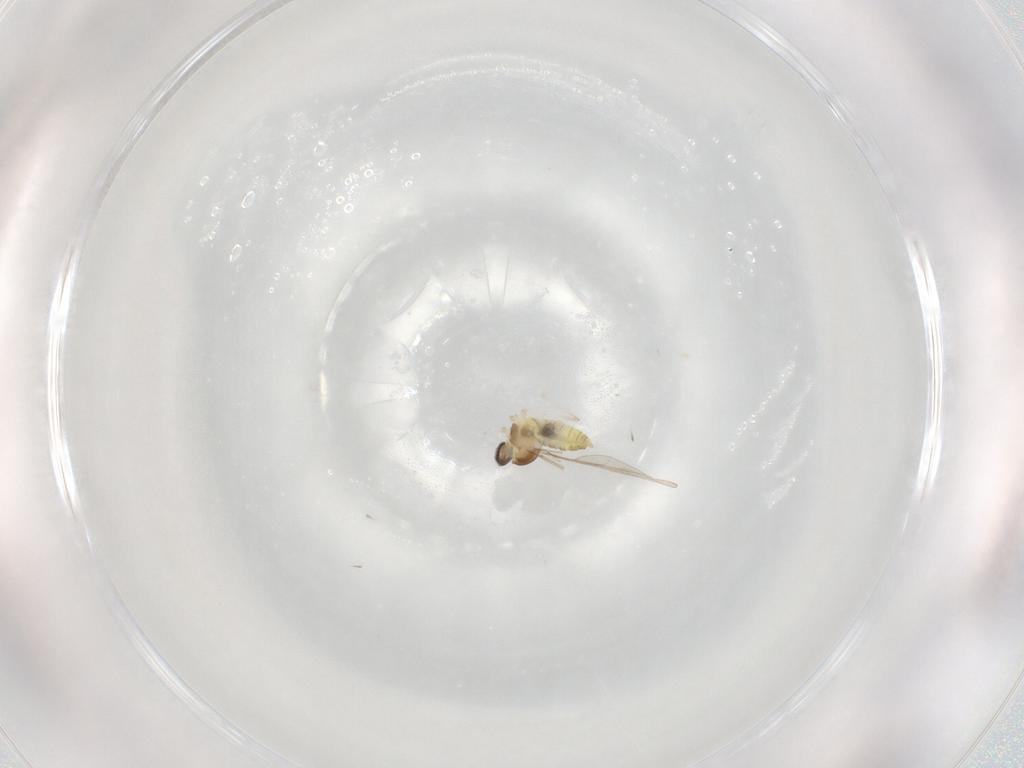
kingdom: Animalia
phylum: Arthropoda
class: Insecta
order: Diptera
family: Cecidomyiidae
